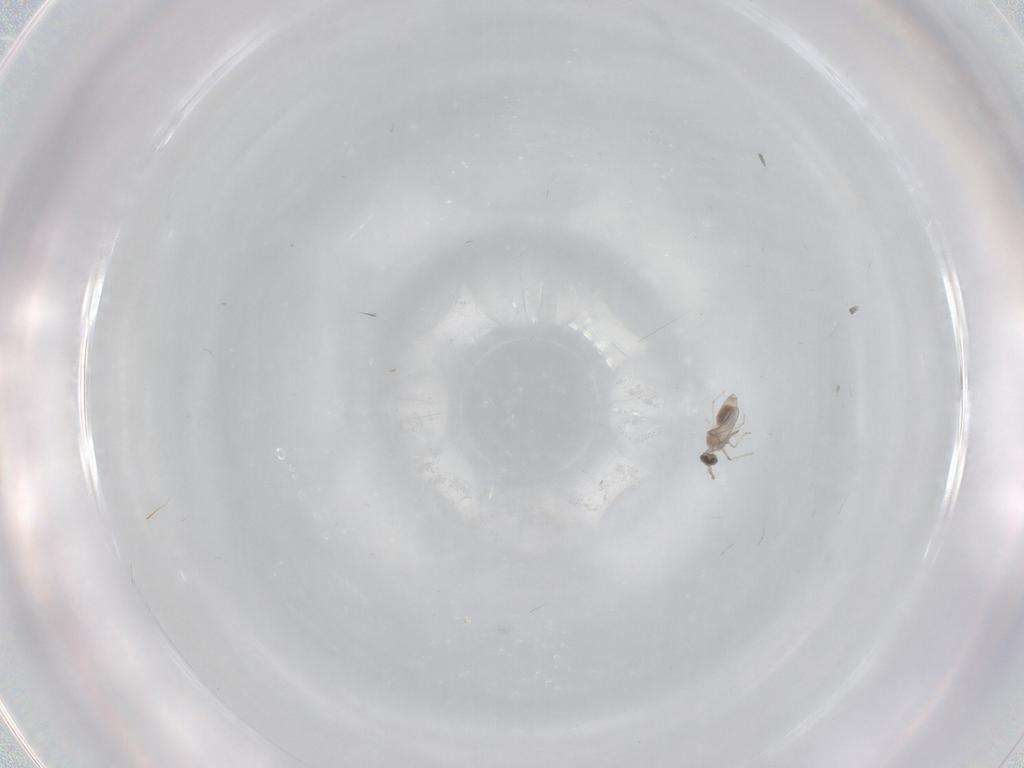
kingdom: Animalia
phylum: Arthropoda
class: Insecta
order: Diptera
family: Cecidomyiidae
